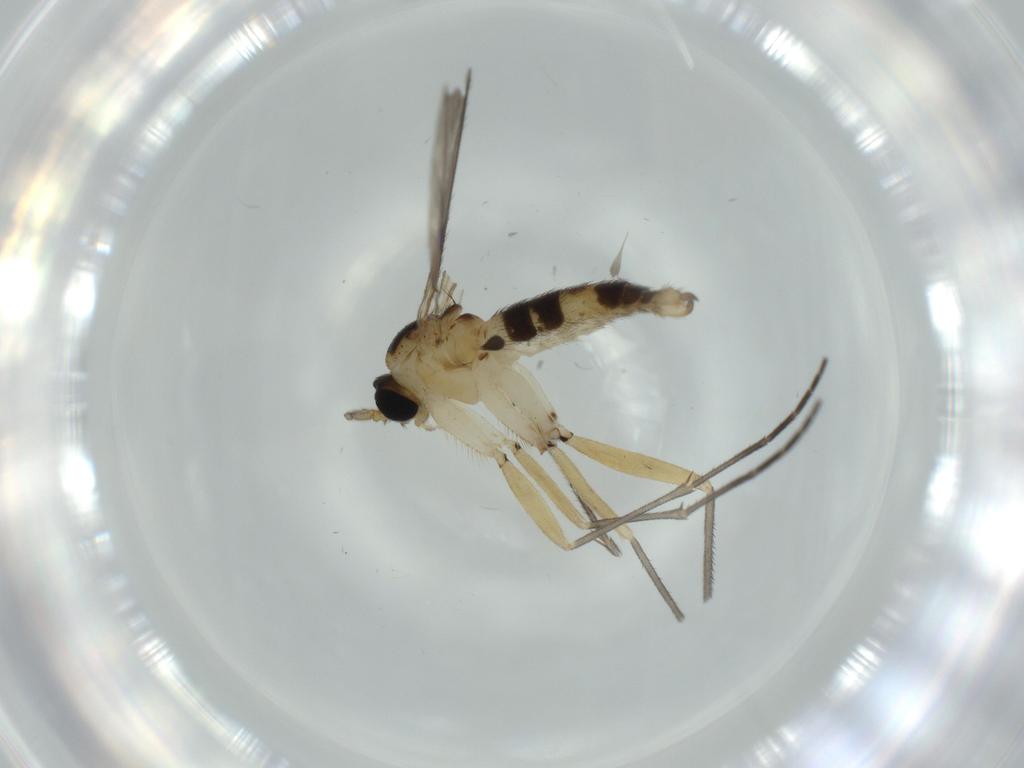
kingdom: Animalia
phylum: Arthropoda
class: Insecta
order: Diptera
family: Sciaridae
